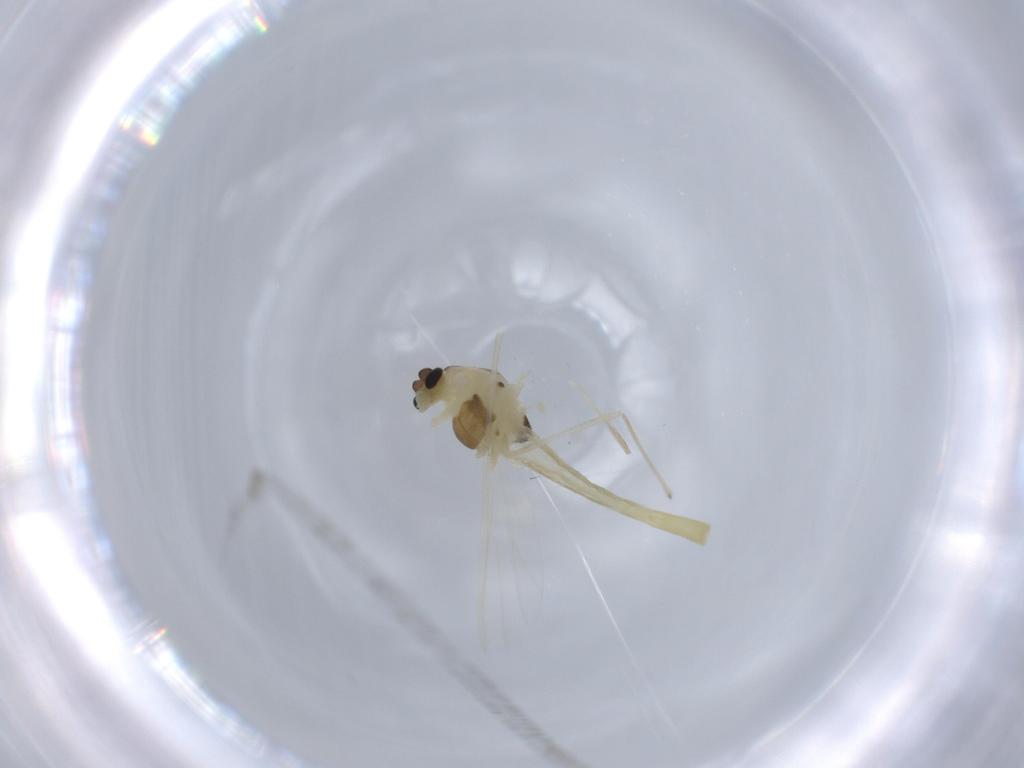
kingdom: Animalia
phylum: Arthropoda
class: Insecta
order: Diptera
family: Chironomidae
